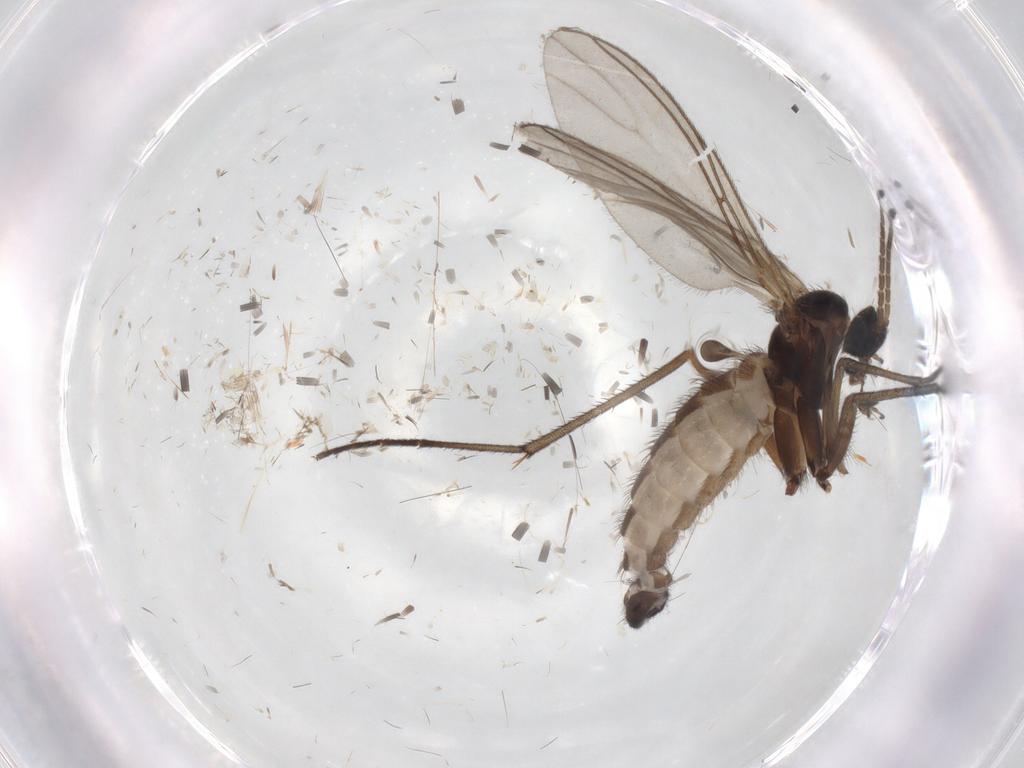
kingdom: Animalia
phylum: Arthropoda
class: Insecta
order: Diptera
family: Sciaridae
